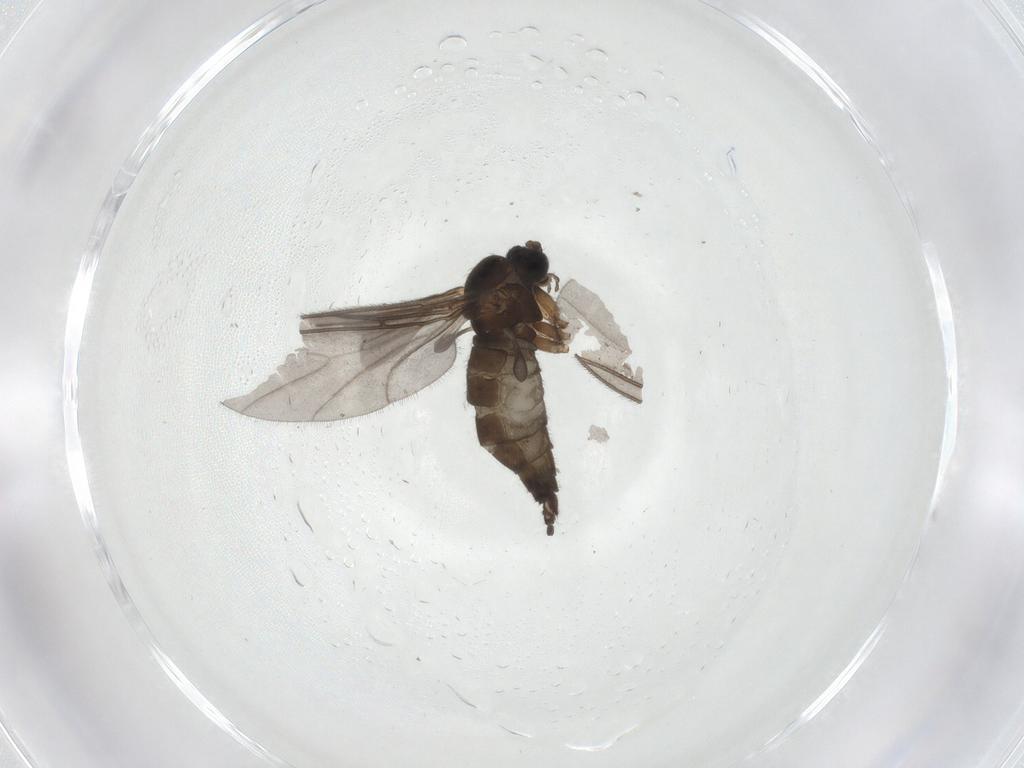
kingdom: Animalia
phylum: Arthropoda
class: Insecta
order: Diptera
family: Sciaridae
